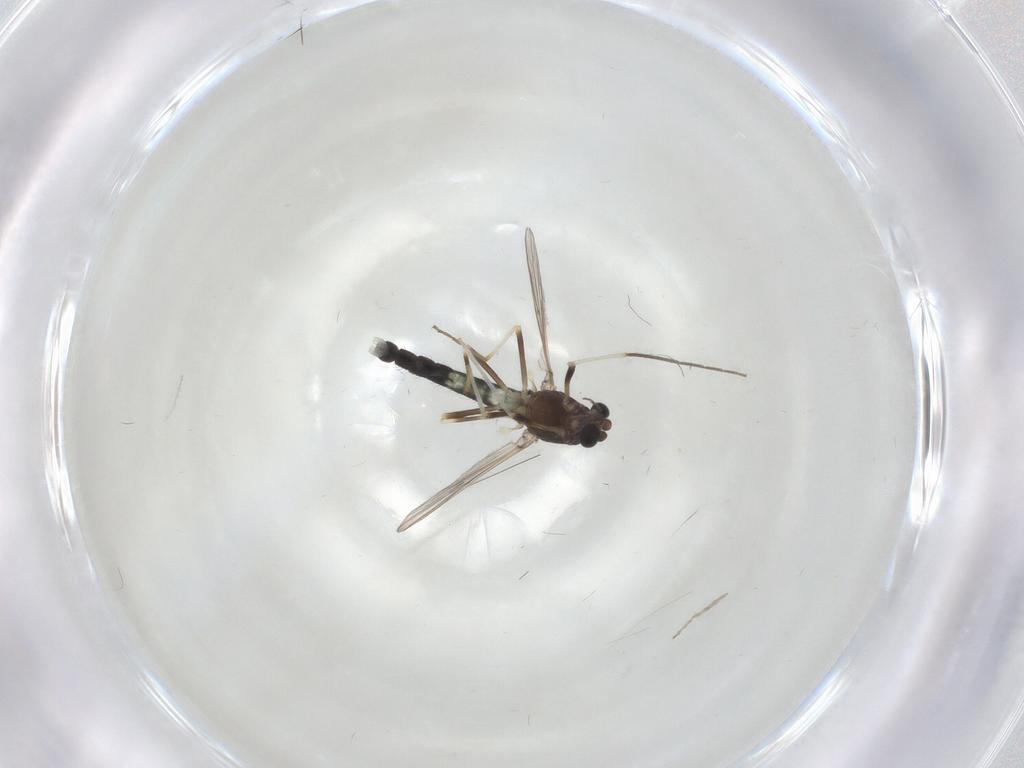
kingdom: Animalia
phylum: Arthropoda
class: Insecta
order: Diptera
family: Chironomidae
